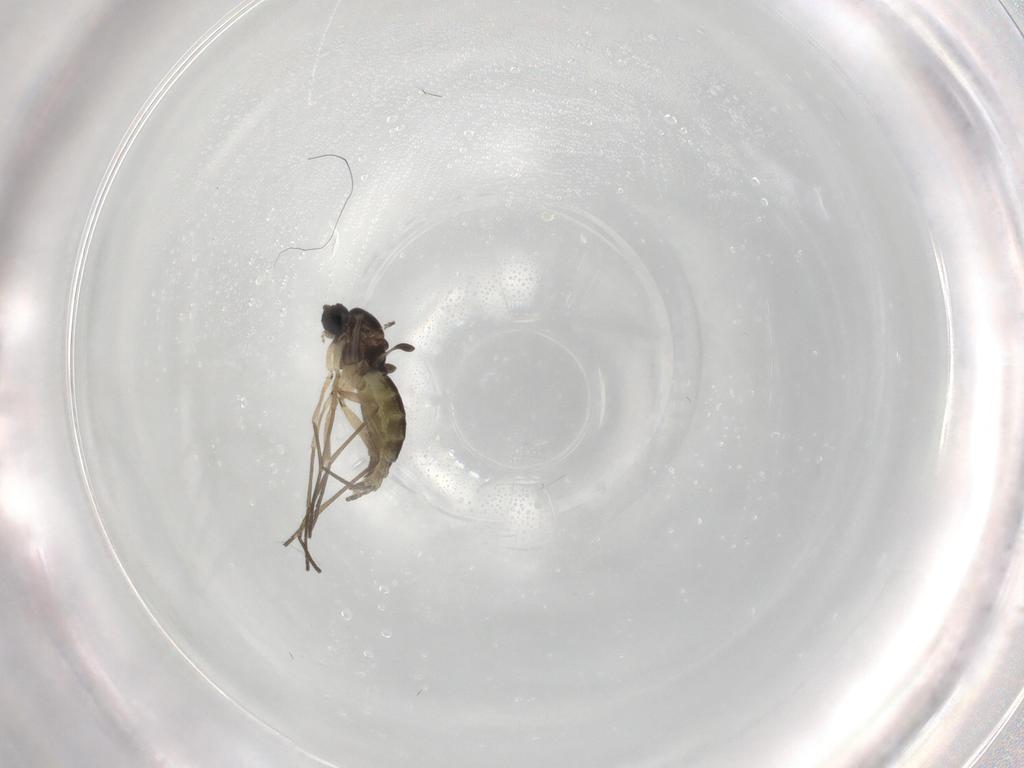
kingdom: Animalia
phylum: Arthropoda
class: Insecta
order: Diptera
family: Sciaridae
